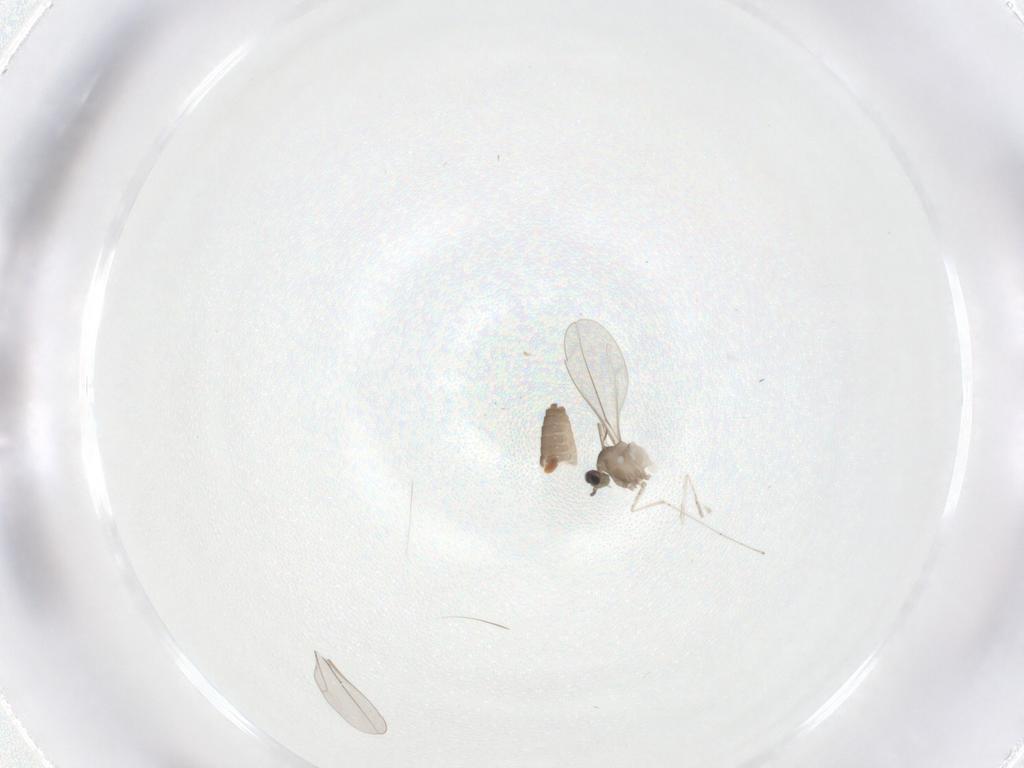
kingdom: Animalia
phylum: Arthropoda
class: Insecta
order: Diptera
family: Cecidomyiidae
